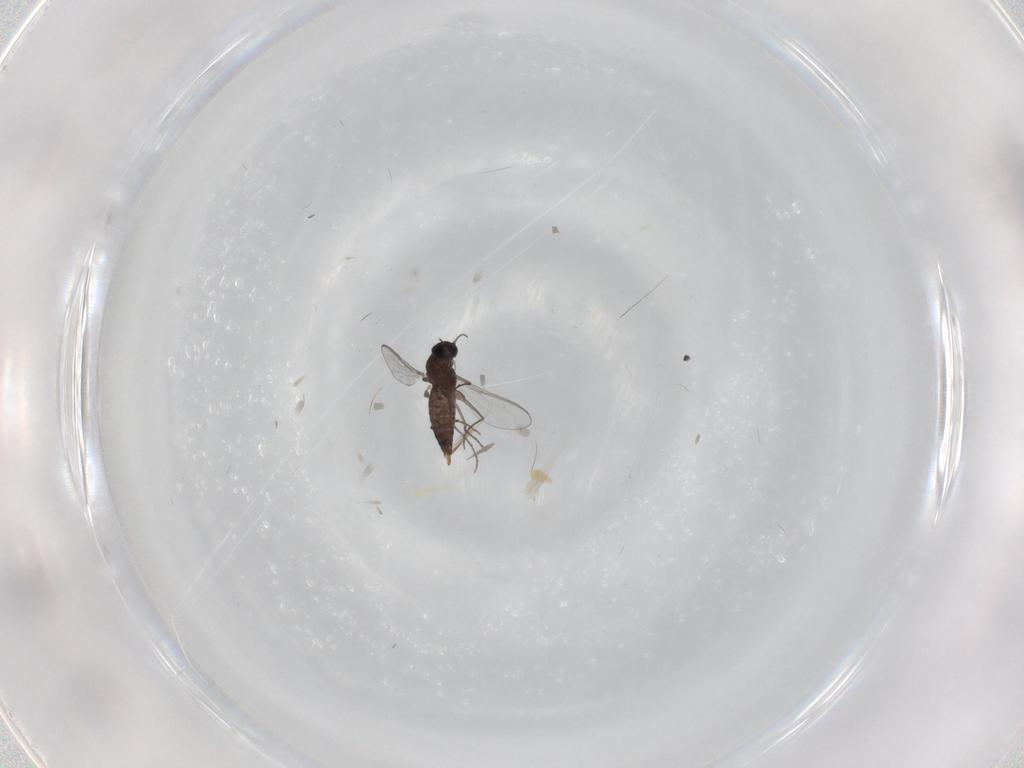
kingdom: Animalia
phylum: Arthropoda
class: Insecta
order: Diptera
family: Chironomidae
